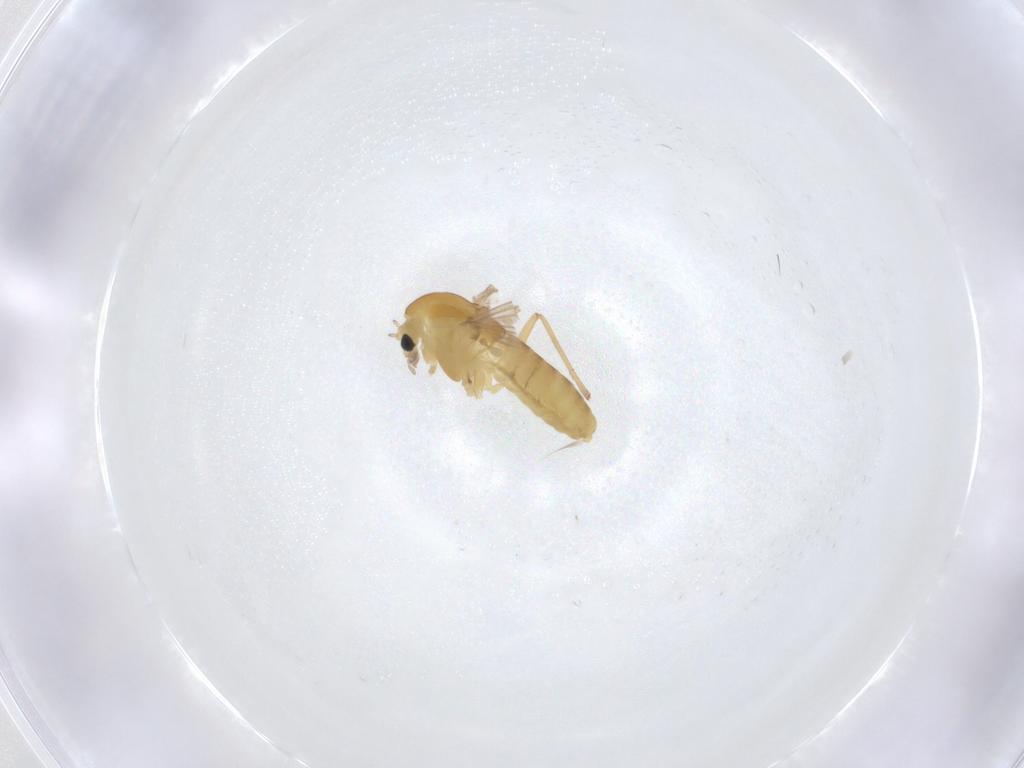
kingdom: Animalia
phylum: Arthropoda
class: Insecta
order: Diptera
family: Chironomidae
